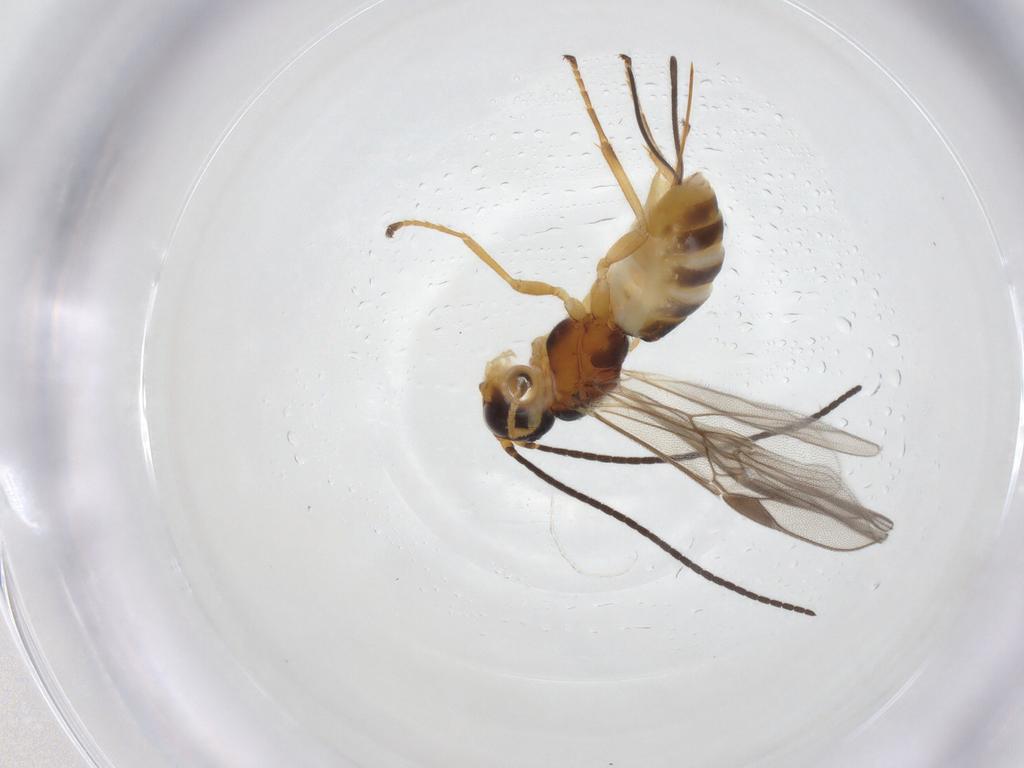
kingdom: Animalia
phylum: Arthropoda
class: Insecta
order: Hymenoptera
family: Braconidae
